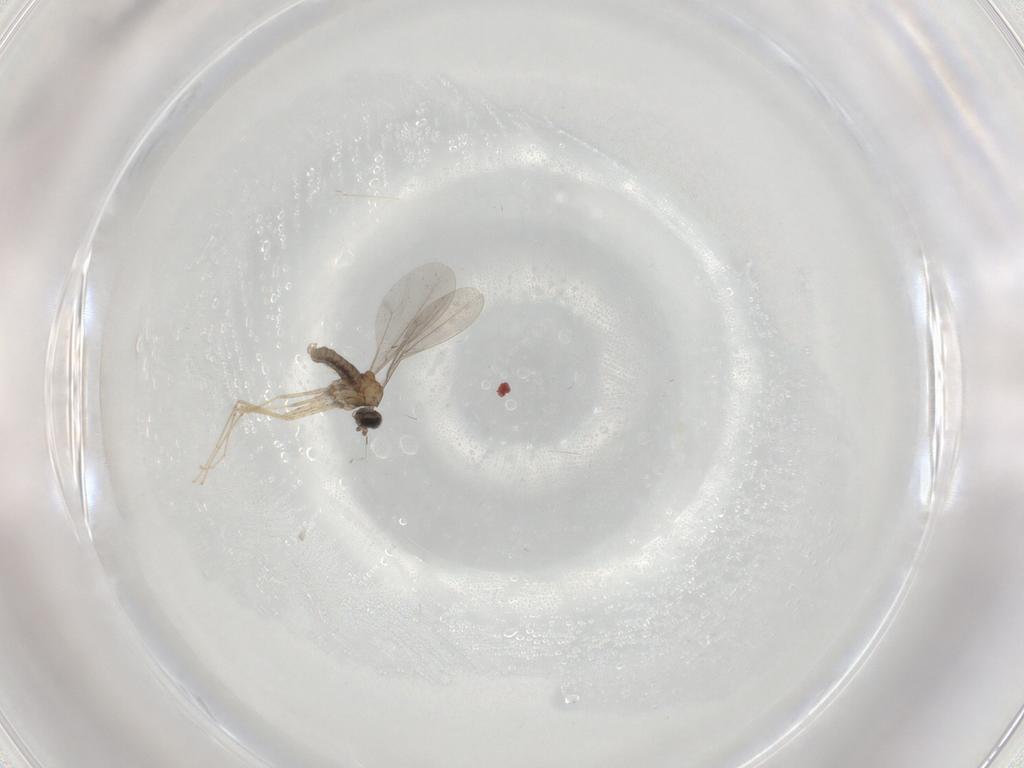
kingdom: Animalia
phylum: Arthropoda
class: Insecta
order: Diptera
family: Cecidomyiidae
